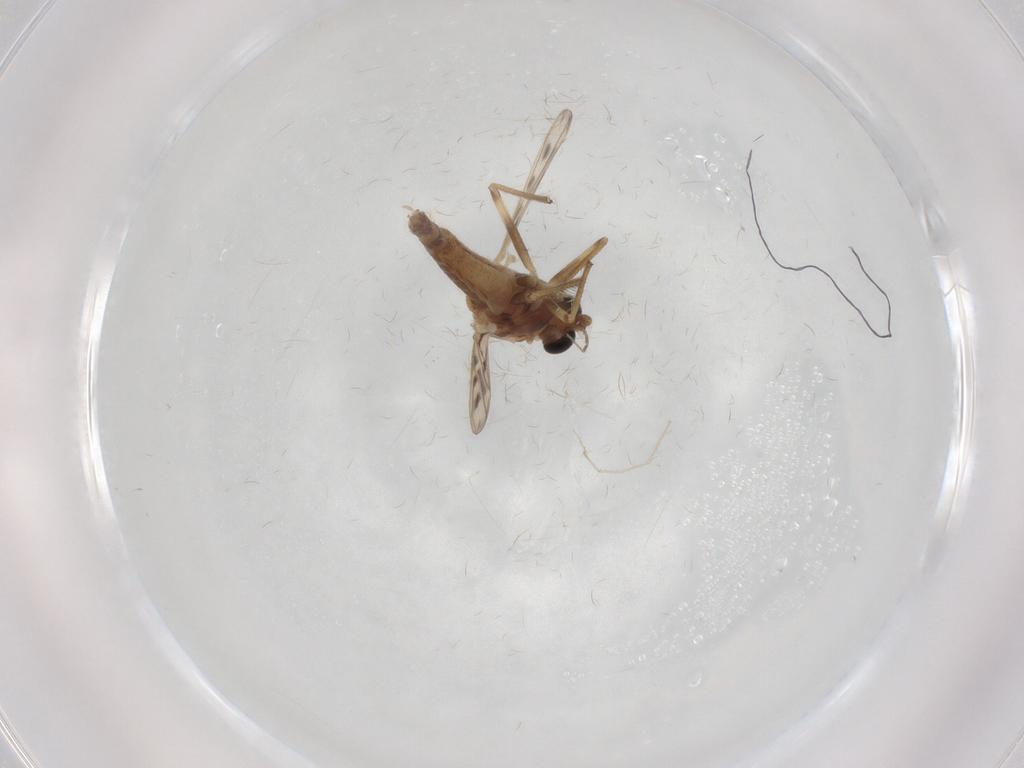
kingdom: Animalia
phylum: Arthropoda
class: Insecta
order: Diptera
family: Chironomidae
